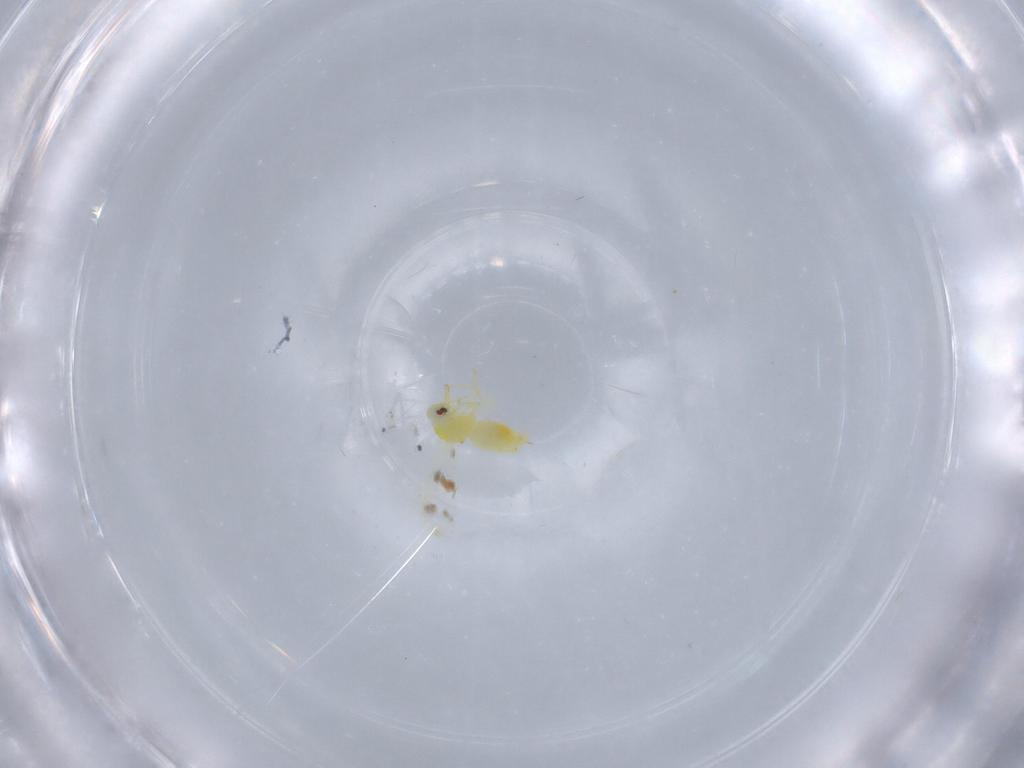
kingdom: Animalia
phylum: Arthropoda
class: Insecta
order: Hemiptera
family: Aleyrodidae
